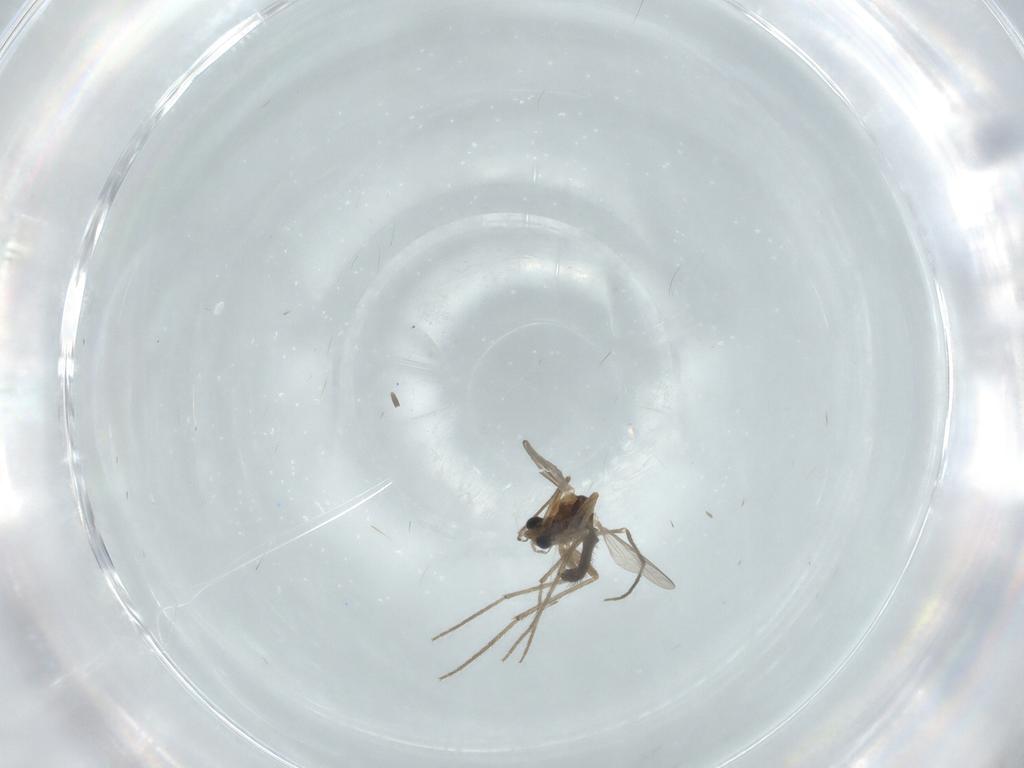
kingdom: Animalia
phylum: Arthropoda
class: Insecta
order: Diptera
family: Chironomidae
